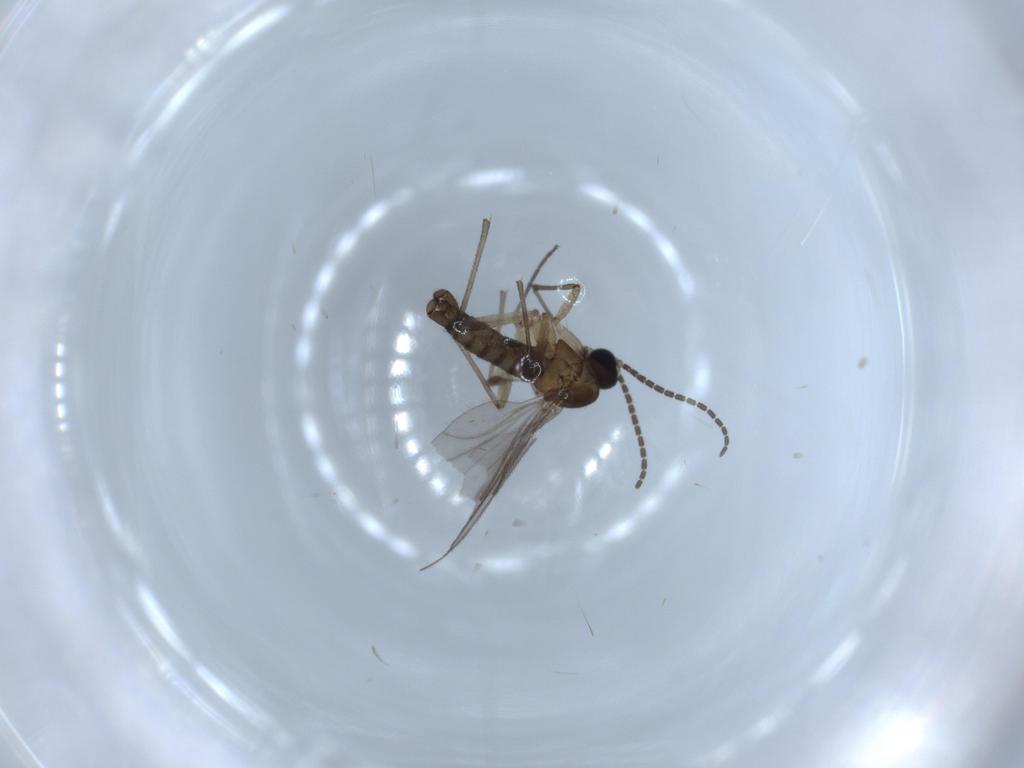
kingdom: Animalia
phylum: Arthropoda
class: Insecta
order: Diptera
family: Sciaridae
